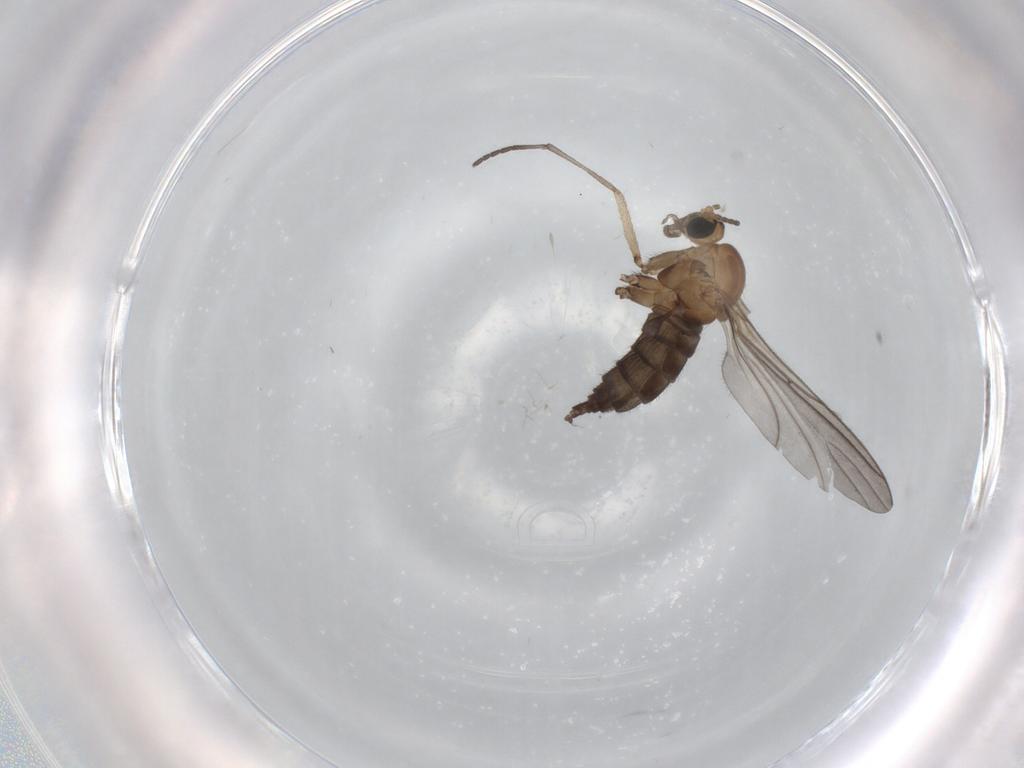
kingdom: Animalia
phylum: Arthropoda
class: Insecta
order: Diptera
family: Sciaridae
